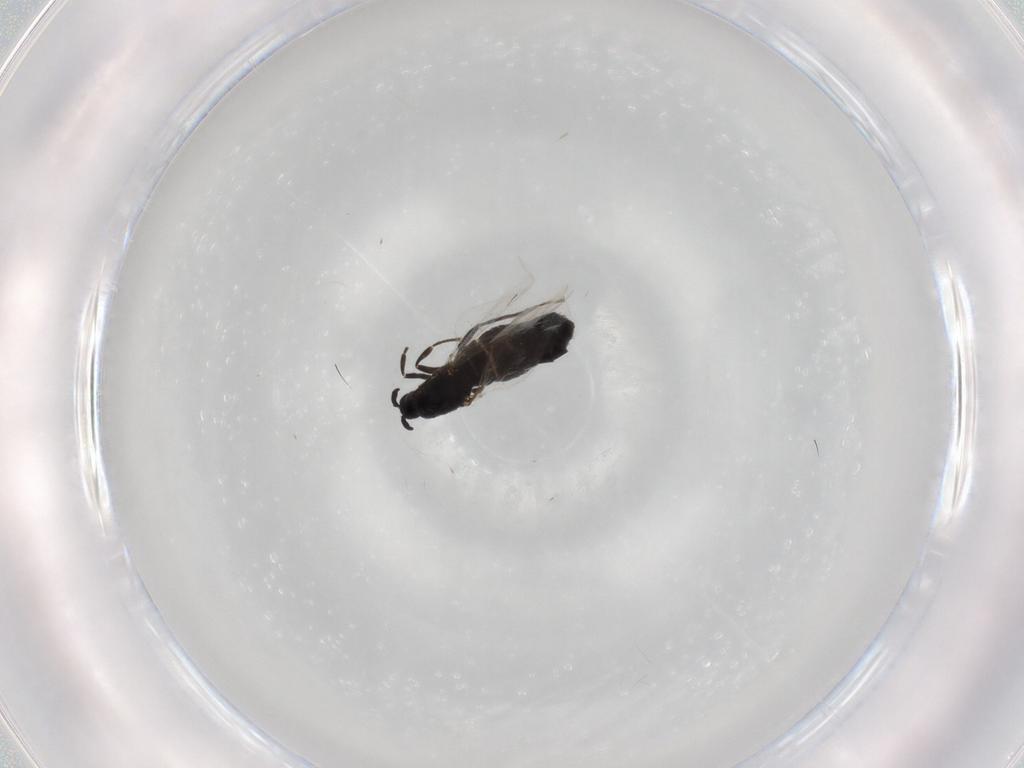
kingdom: Animalia
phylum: Arthropoda
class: Insecta
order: Diptera
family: Scatopsidae
